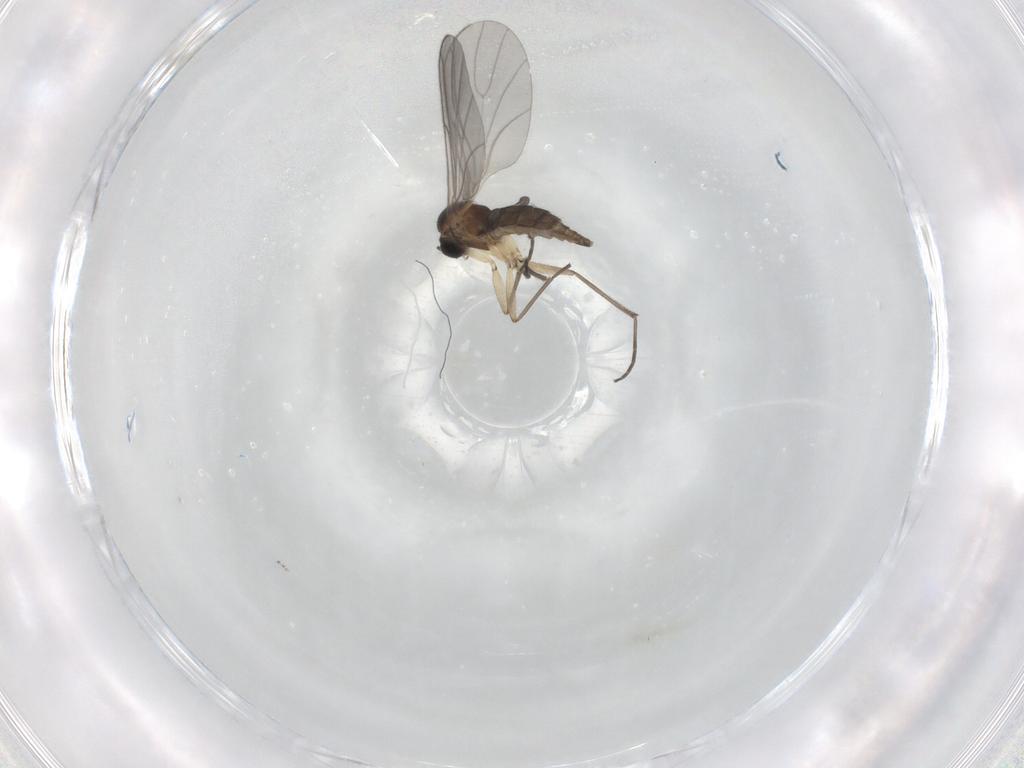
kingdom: Animalia
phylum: Arthropoda
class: Insecta
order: Diptera
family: Sciaridae
